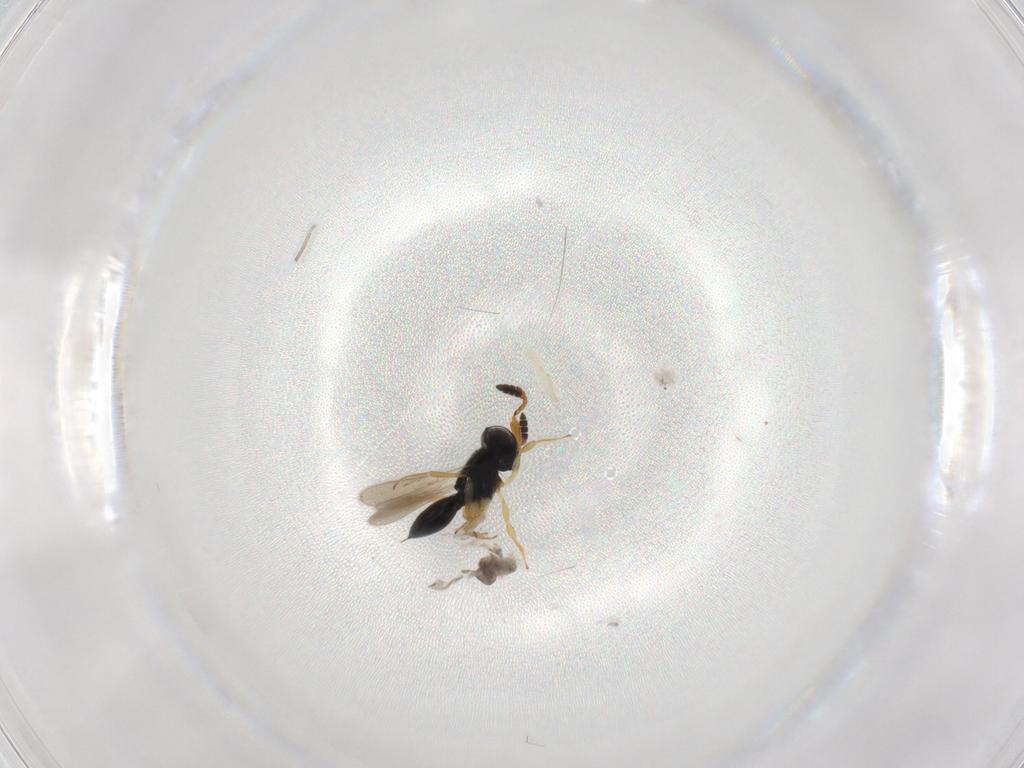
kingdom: Animalia
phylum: Arthropoda
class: Insecta
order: Hymenoptera
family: Scelionidae
